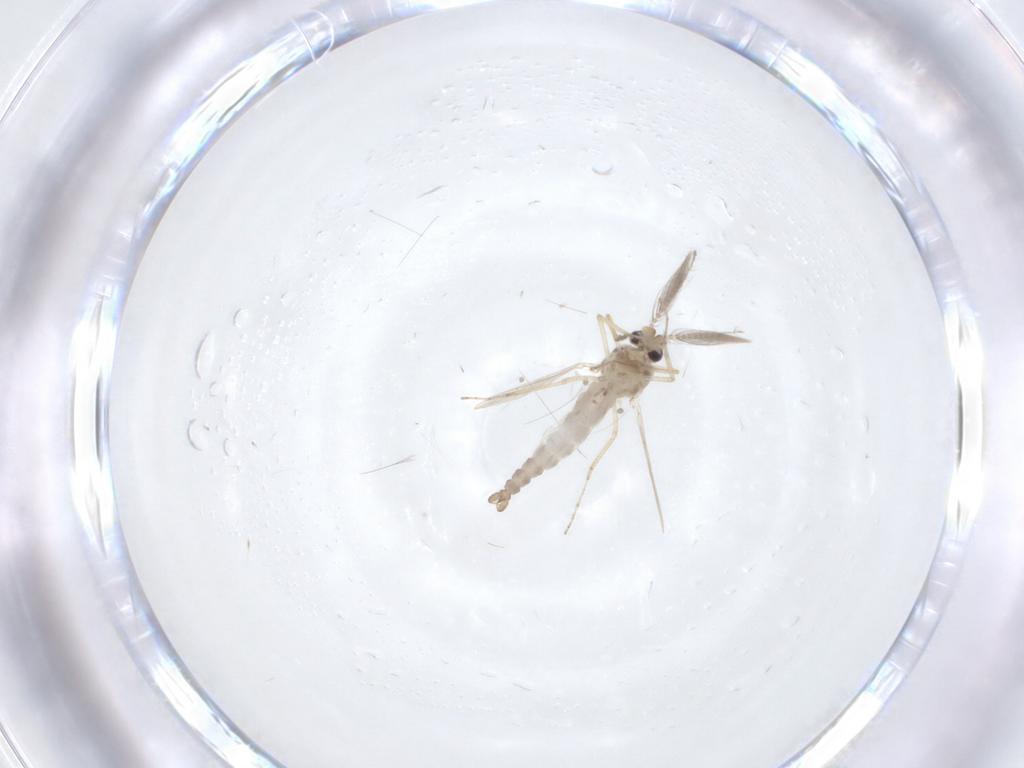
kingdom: Animalia
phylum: Arthropoda
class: Insecta
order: Diptera
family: Ceratopogonidae
